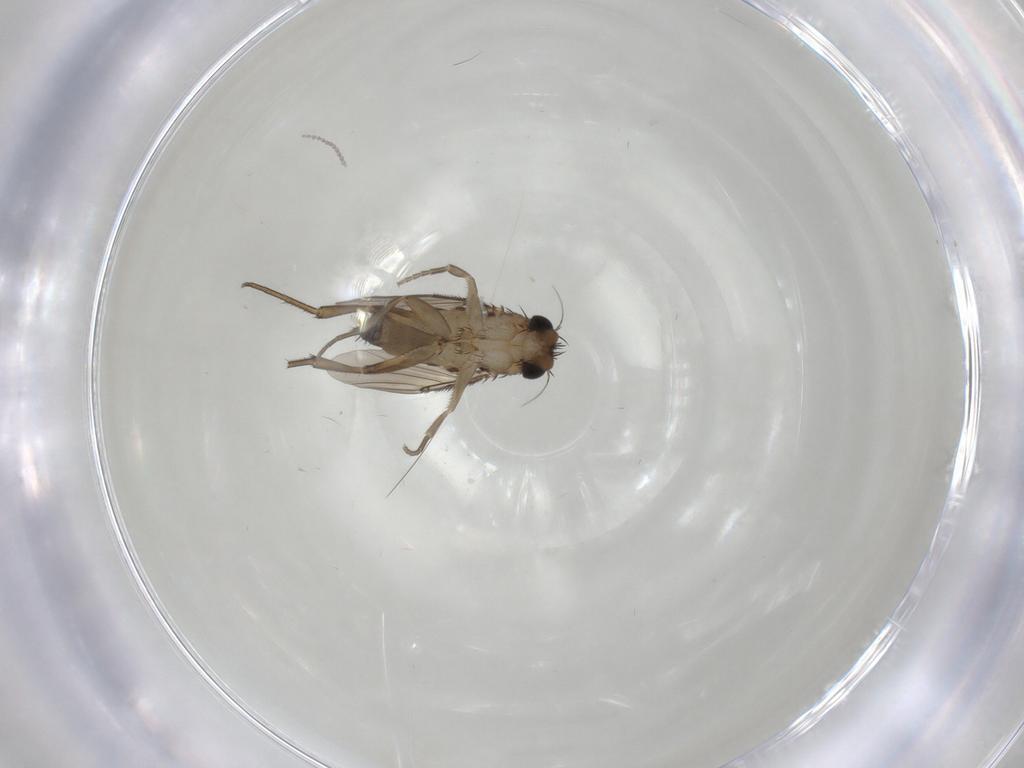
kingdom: Animalia
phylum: Arthropoda
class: Insecta
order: Diptera
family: Phoridae
